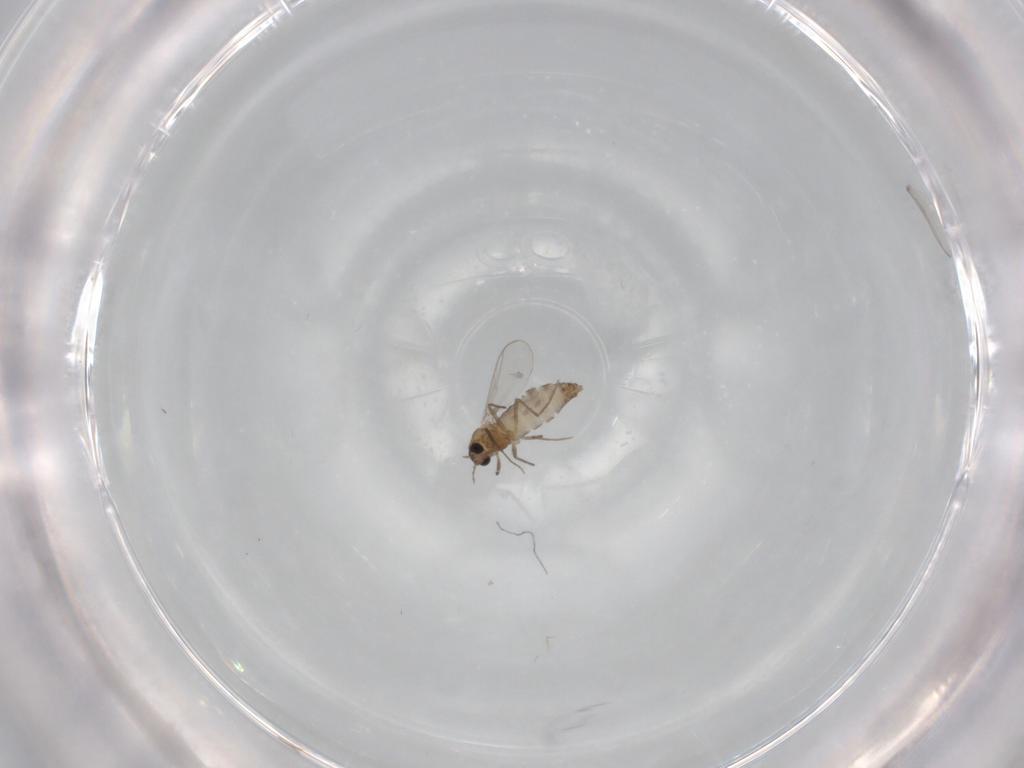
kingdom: Animalia
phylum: Arthropoda
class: Insecta
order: Diptera
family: Chironomidae
